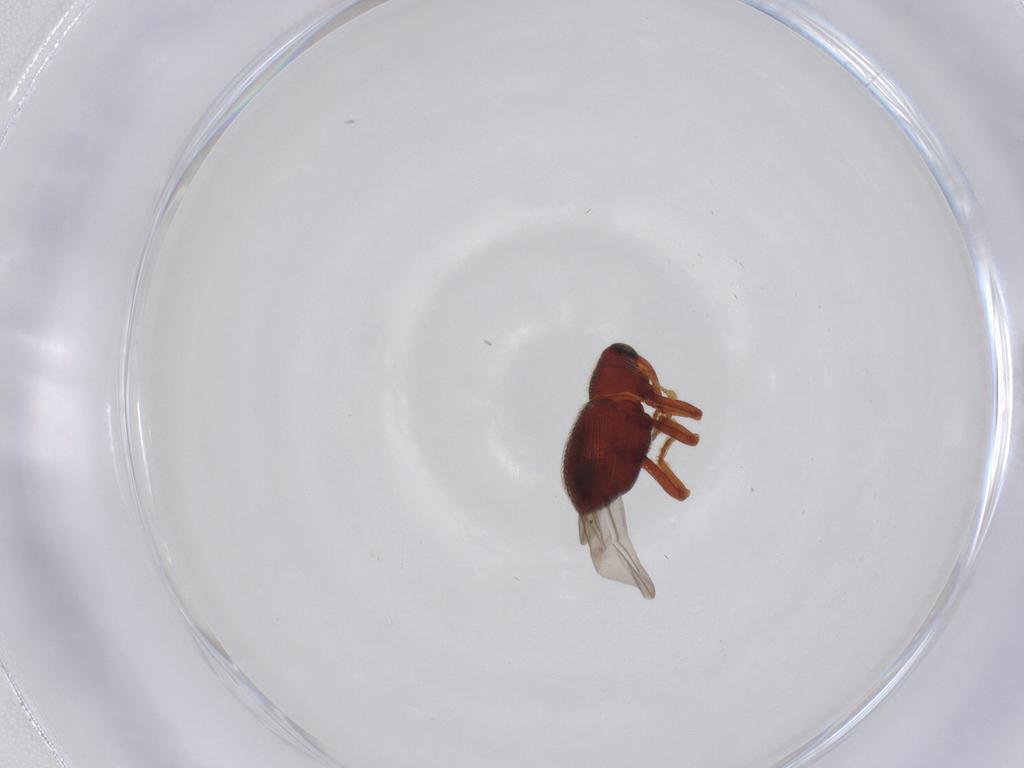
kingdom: Animalia
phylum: Arthropoda
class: Insecta
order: Coleoptera
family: Curculionidae
